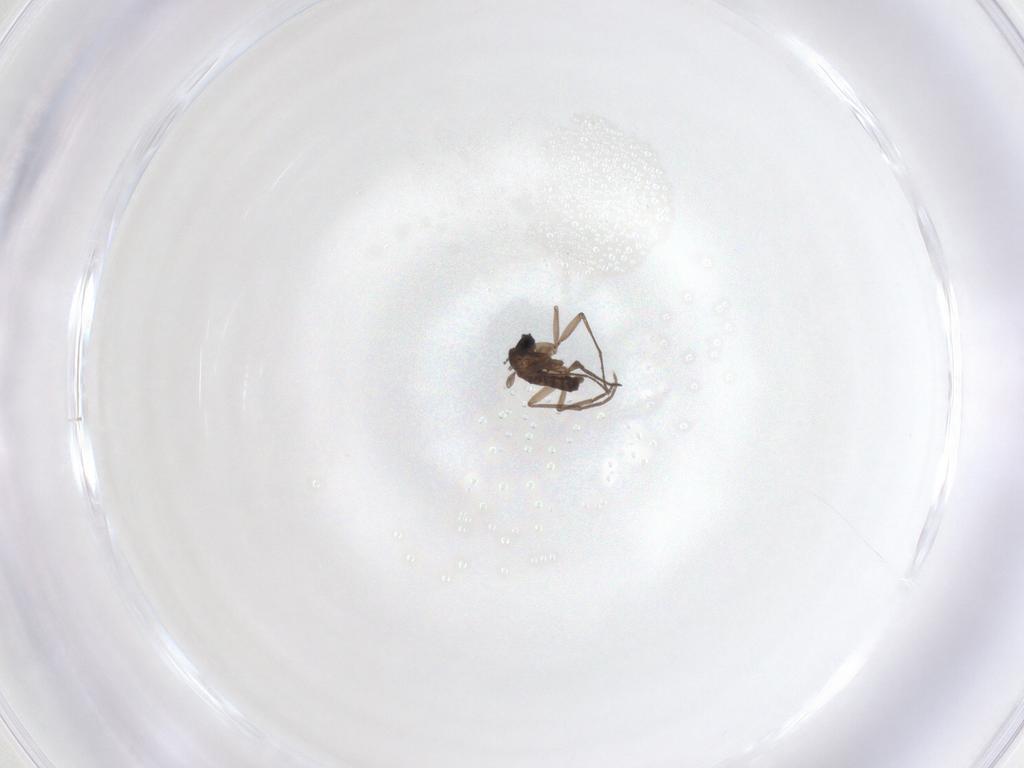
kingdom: Animalia
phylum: Arthropoda
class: Insecta
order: Diptera
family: Sciaridae
